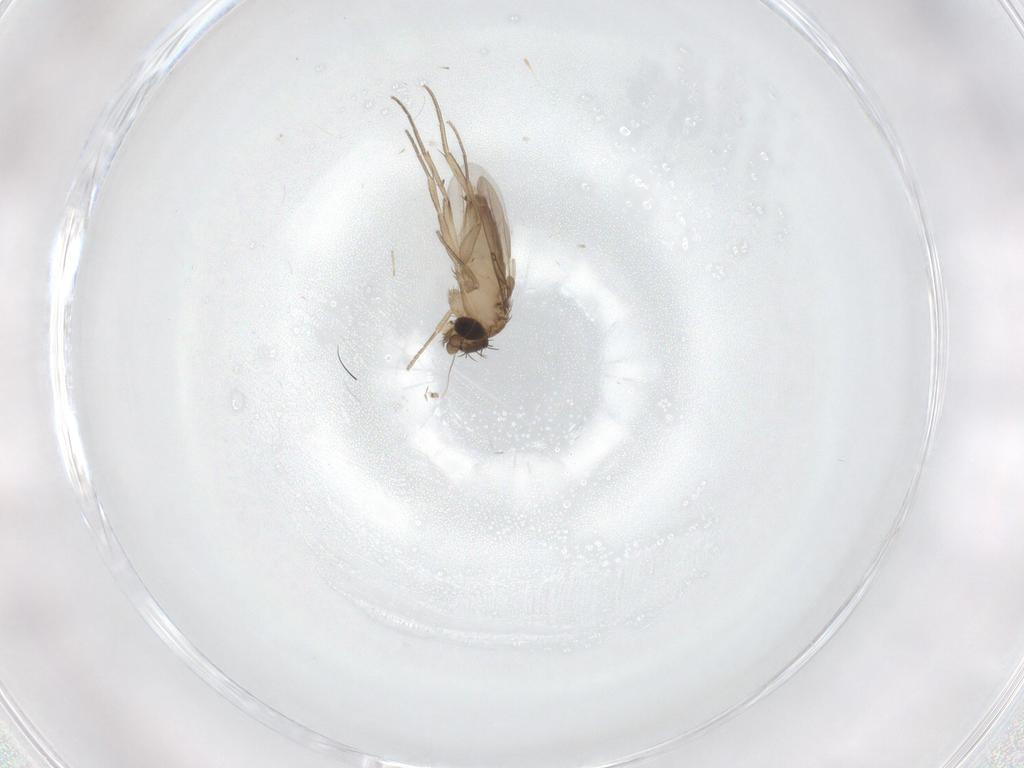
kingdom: Animalia
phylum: Arthropoda
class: Insecta
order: Diptera
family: Phoridae
